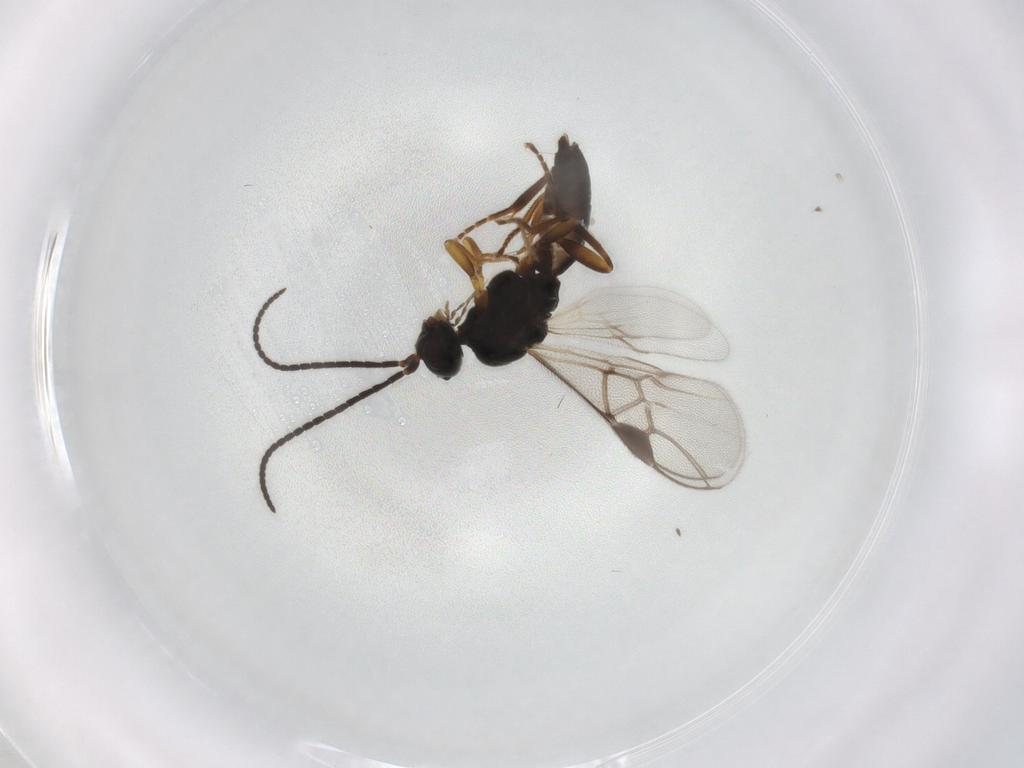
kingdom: Animalia
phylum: Arthropoda
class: Insecta
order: Hymenoptera
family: Braconidae
